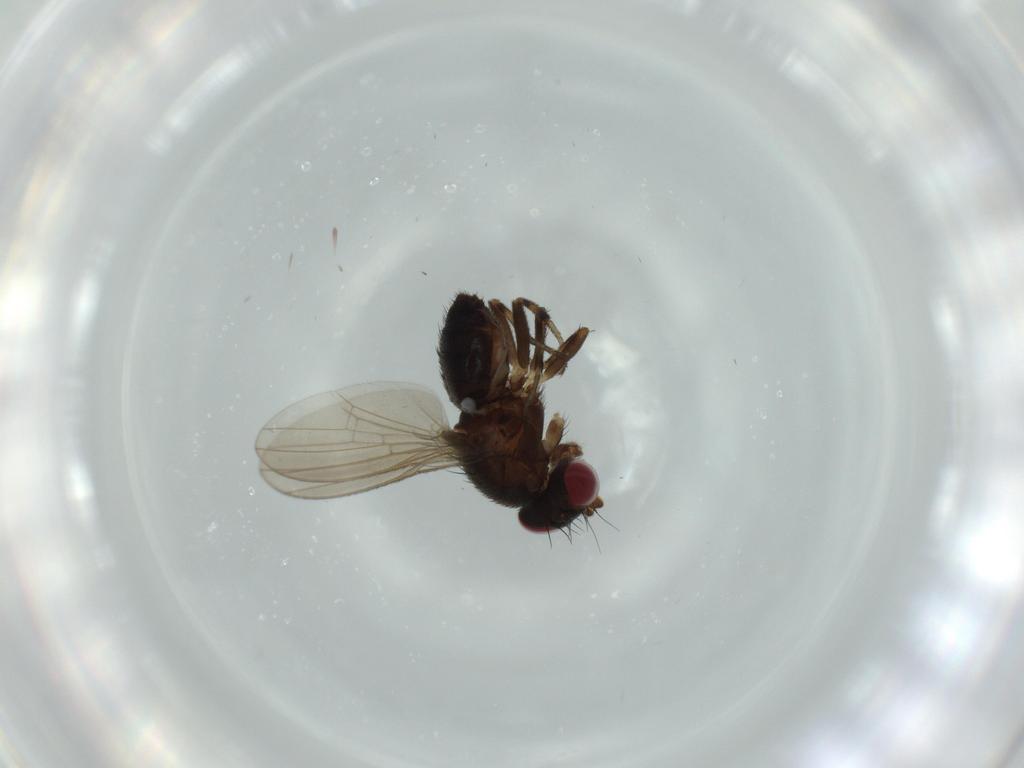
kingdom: Animalia
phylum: Arthropoda
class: Insecta
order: Diptera
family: Heleomyzidae
